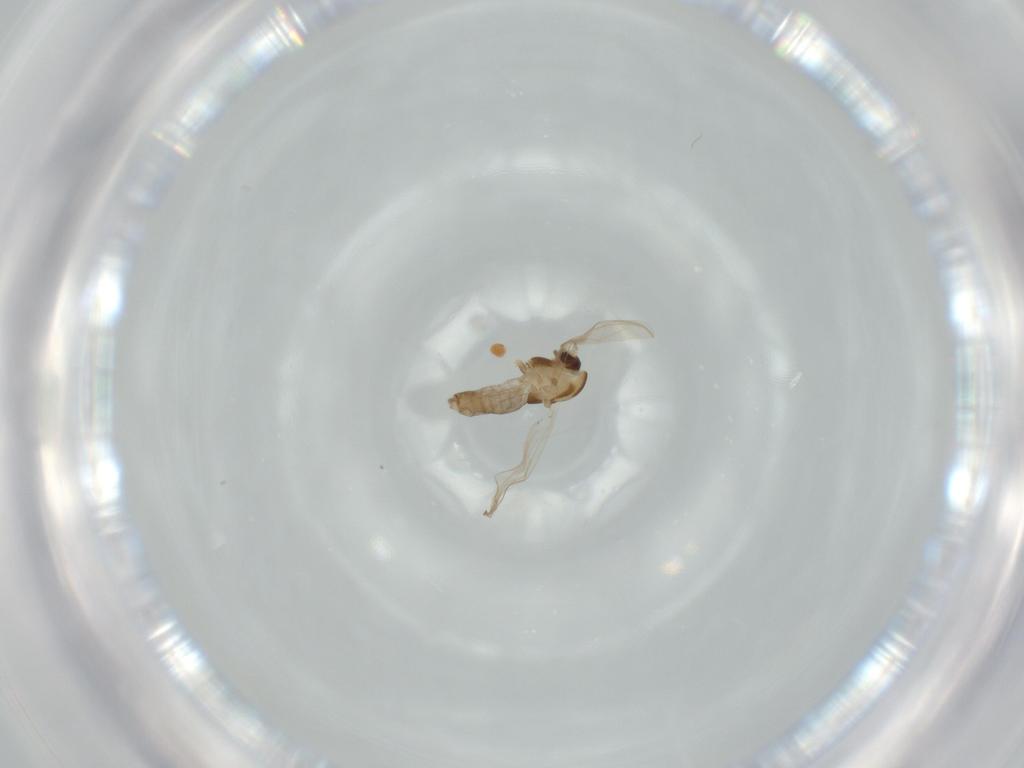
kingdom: Animalia
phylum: Arthropoda
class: Insecta
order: Diptera
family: Chironomidae
